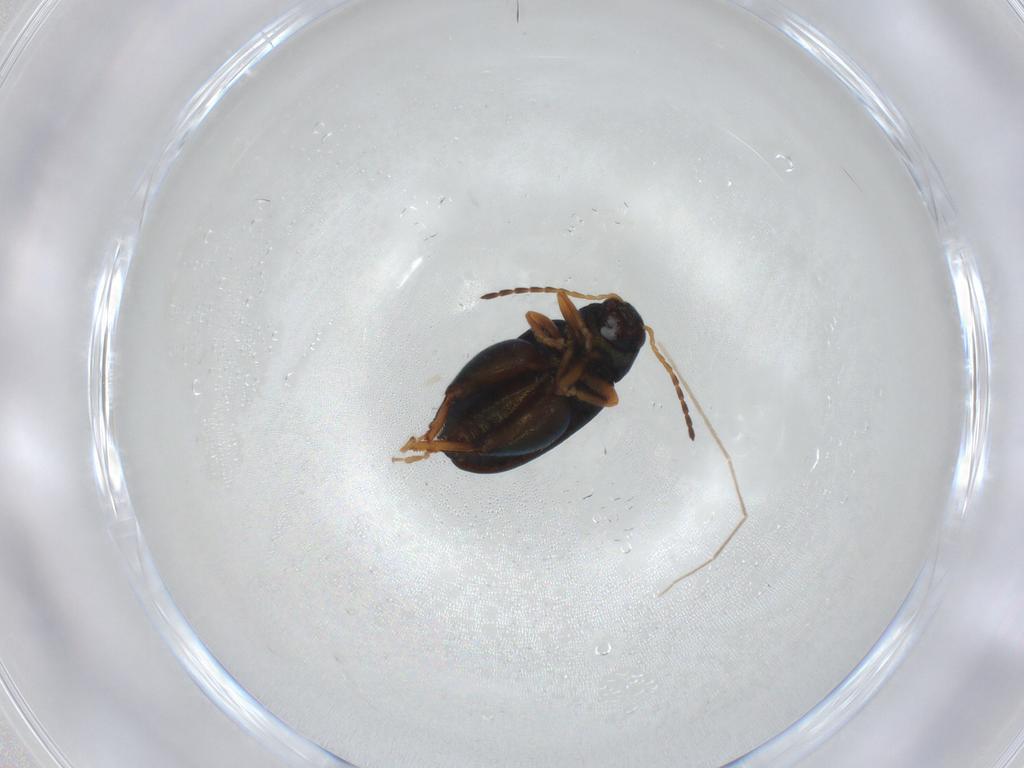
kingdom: Animalia
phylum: Arthropoda
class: Insecta
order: Coleoptera
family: Chrysomelidae
